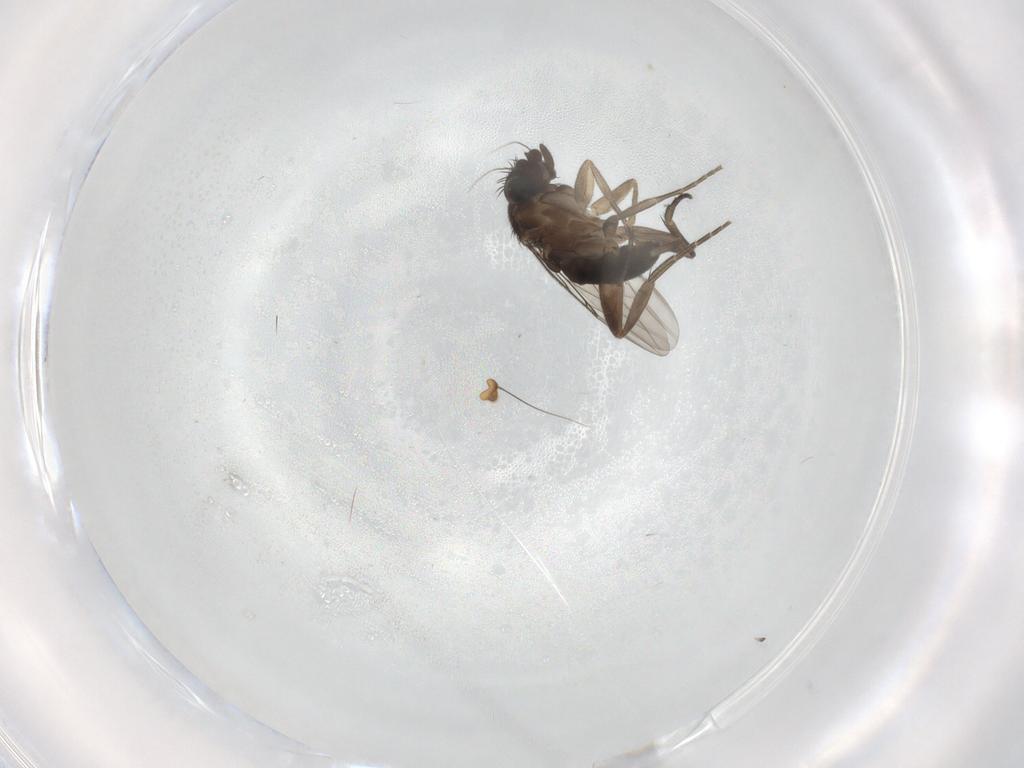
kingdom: Animalia
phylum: Arthropoda
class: Insecta
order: Diptera
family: Phoridae
